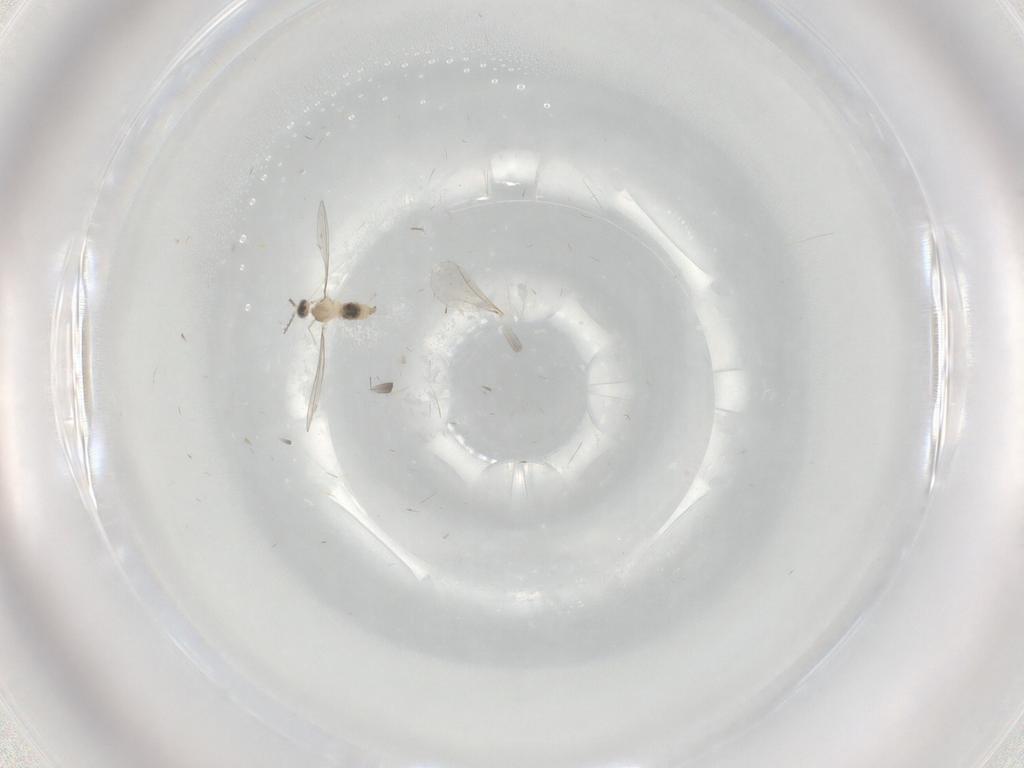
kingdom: Animalia
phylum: Arthropoda
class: Insecta
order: Diptera
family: Cecidomyiidae
